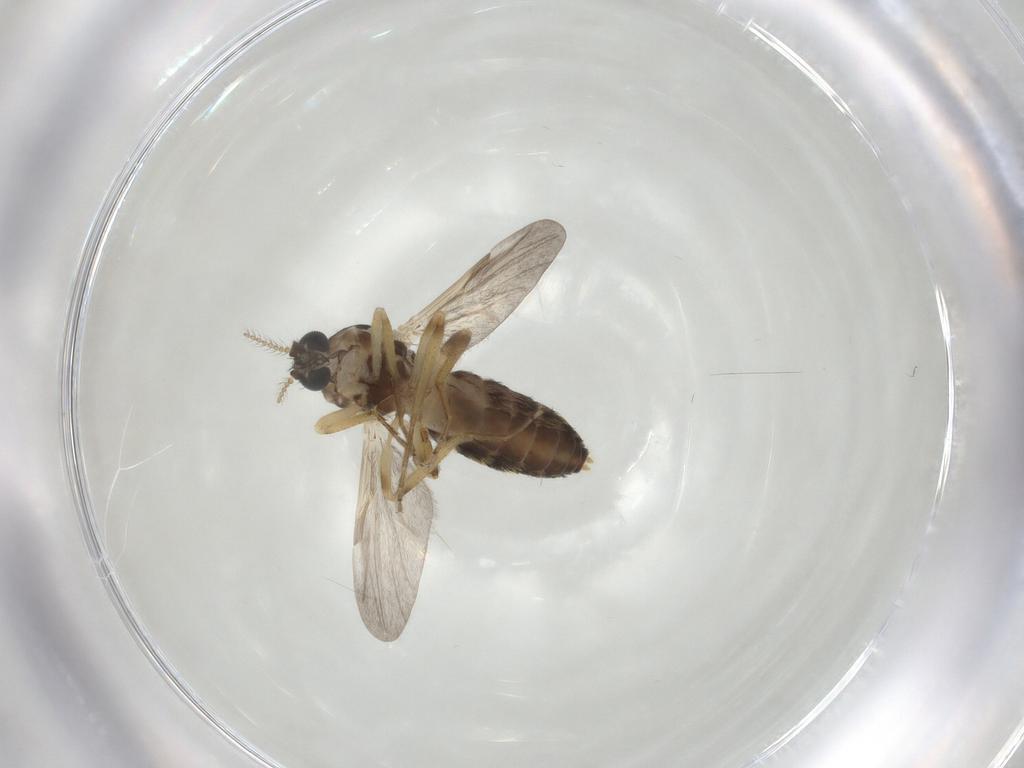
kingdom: Animalia
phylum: Arthropoda
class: Insecta
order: Diptera
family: Ceratopogonidae
